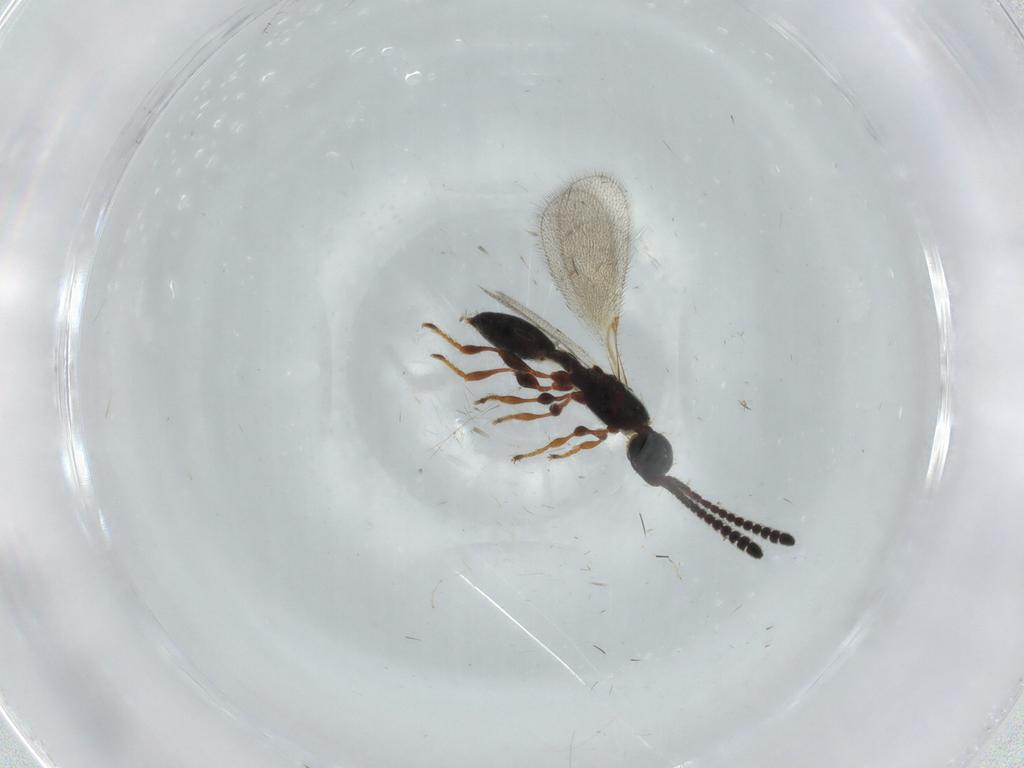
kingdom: Animalia
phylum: Arthropoda
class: Insecta
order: Hymenoptera
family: Diapriidae
